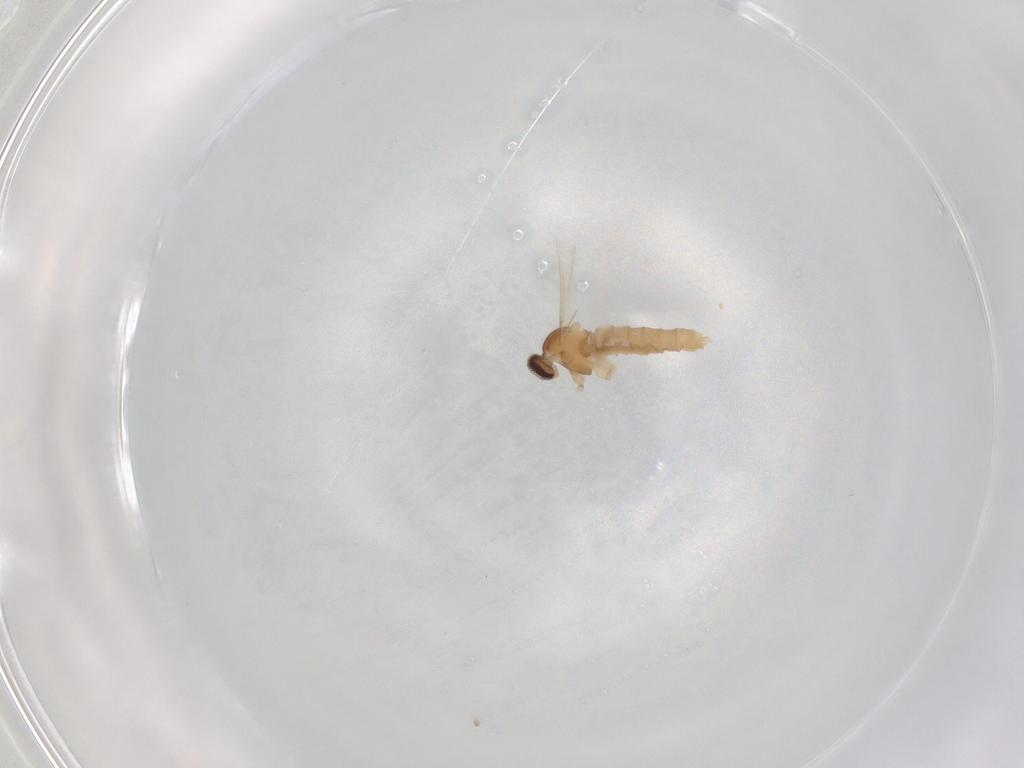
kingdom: Animalia
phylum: Arthropoda
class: Insecta
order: Diptera
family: Cecidomyiidae
